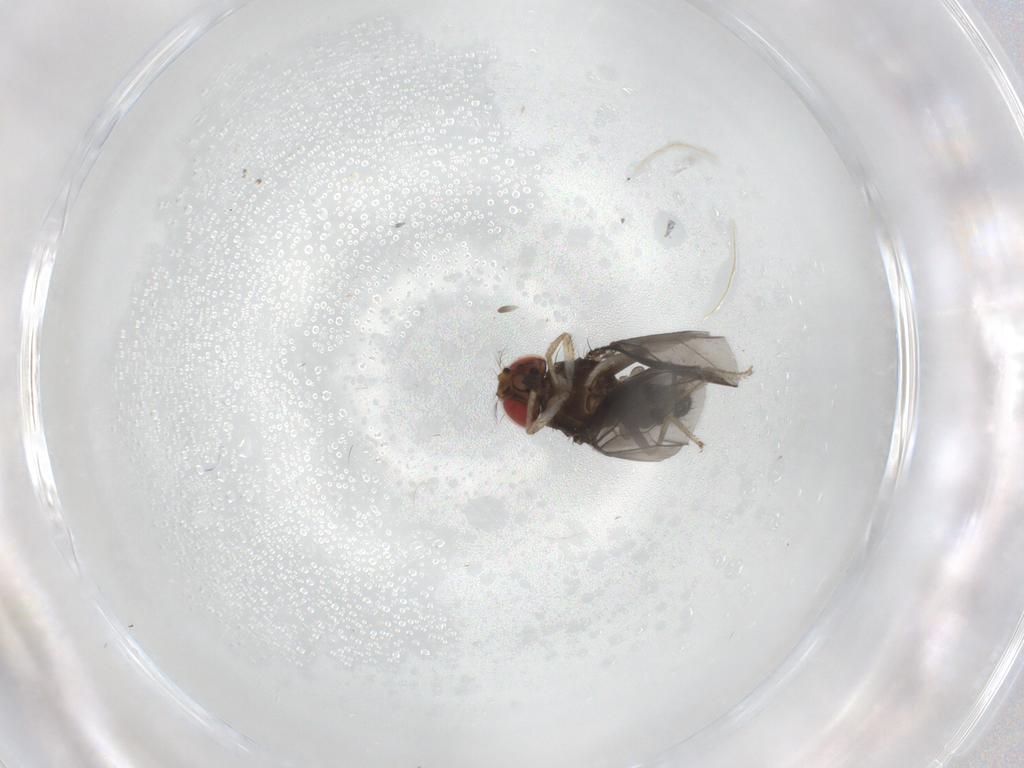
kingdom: Animalia
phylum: Arthropoda
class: Insecta
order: Diptera
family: Drosophilidae
